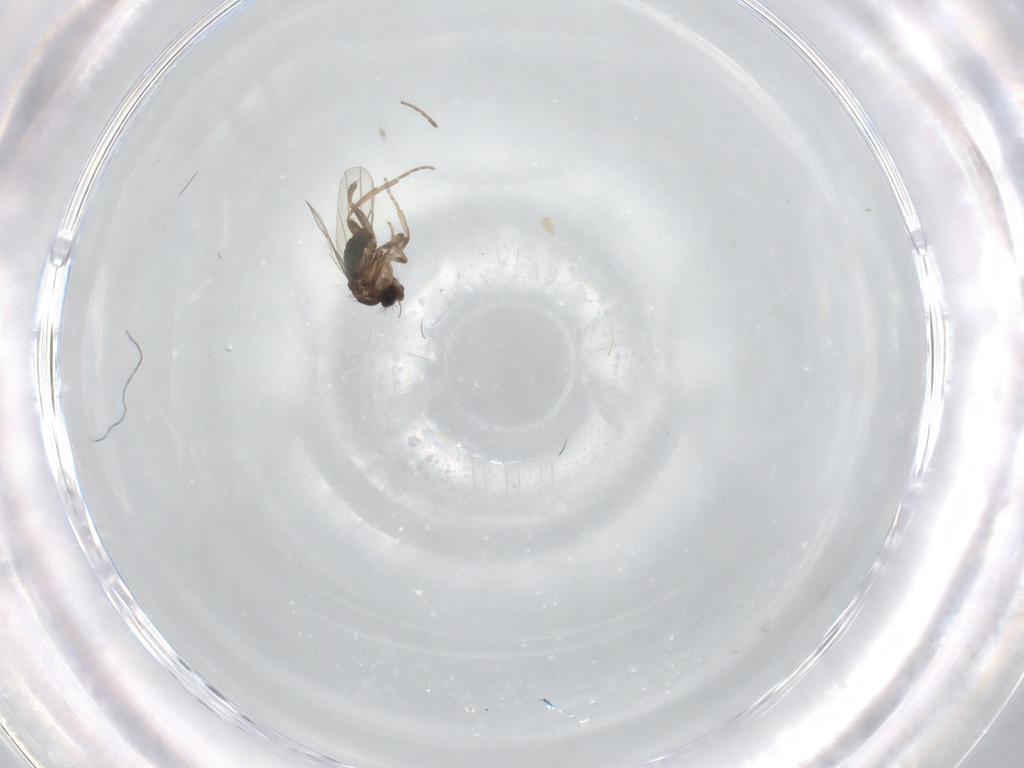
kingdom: Animalia
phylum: Arthropoda
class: Insecta
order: Diptera
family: Phoridae
